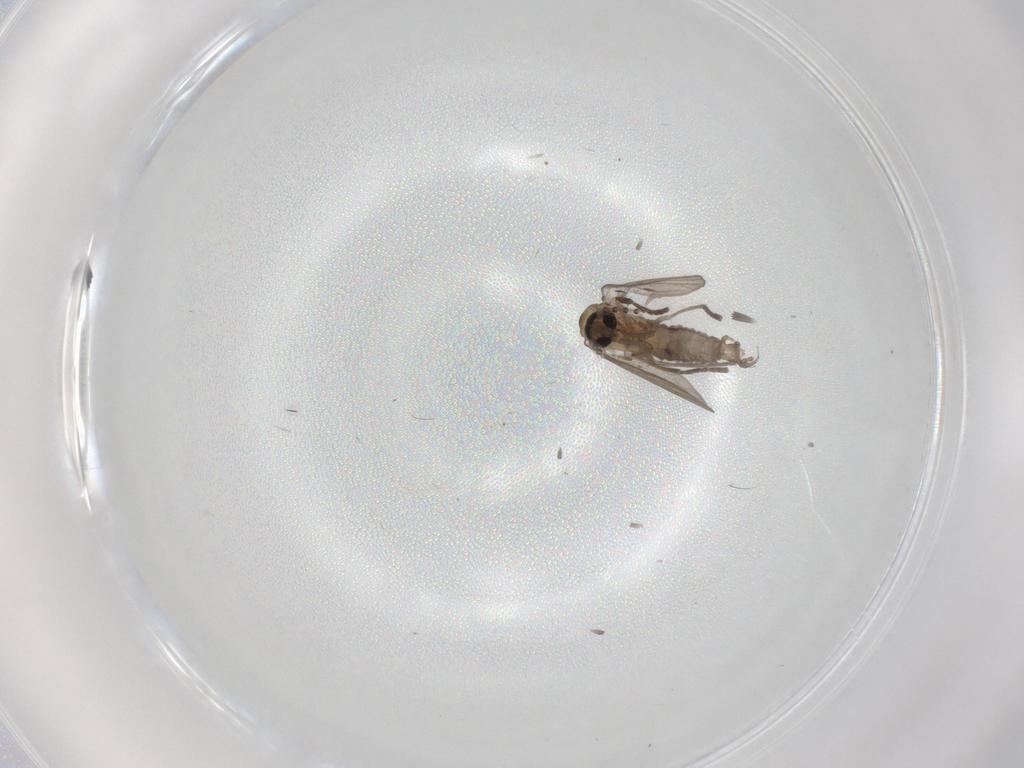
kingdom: Animalia
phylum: Arthropoda
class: Insecta
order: Diptera
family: Psychodidae
